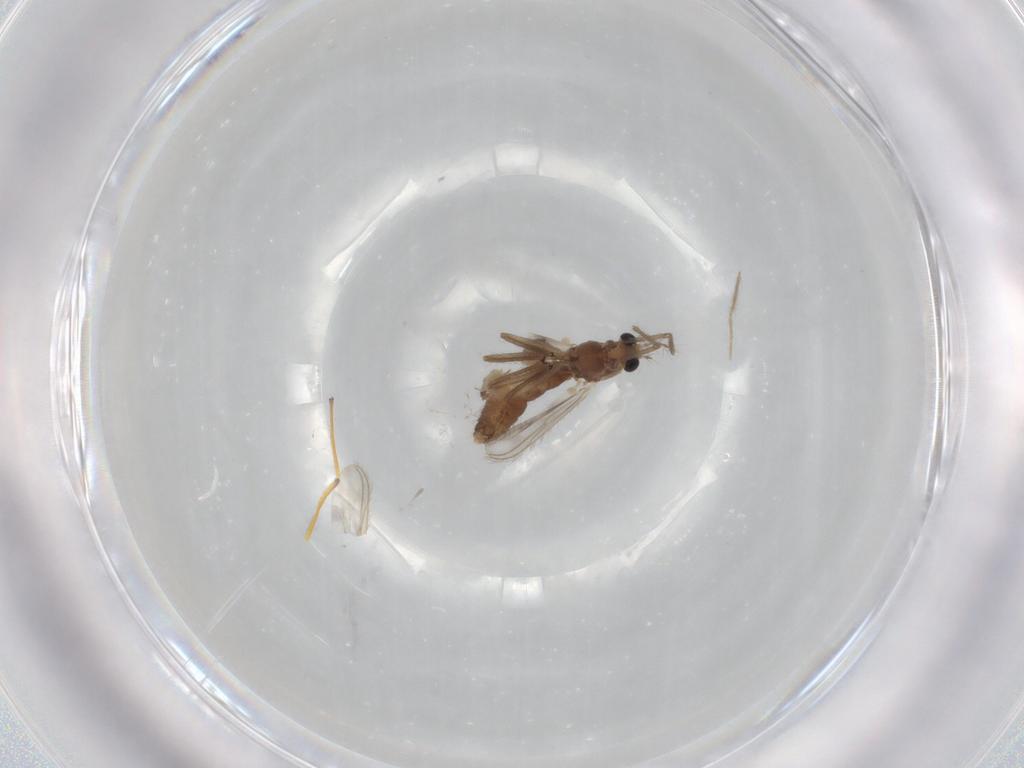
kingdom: Animalia
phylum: Arthropoda
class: Insecta
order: Diptera
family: Chironomidae
